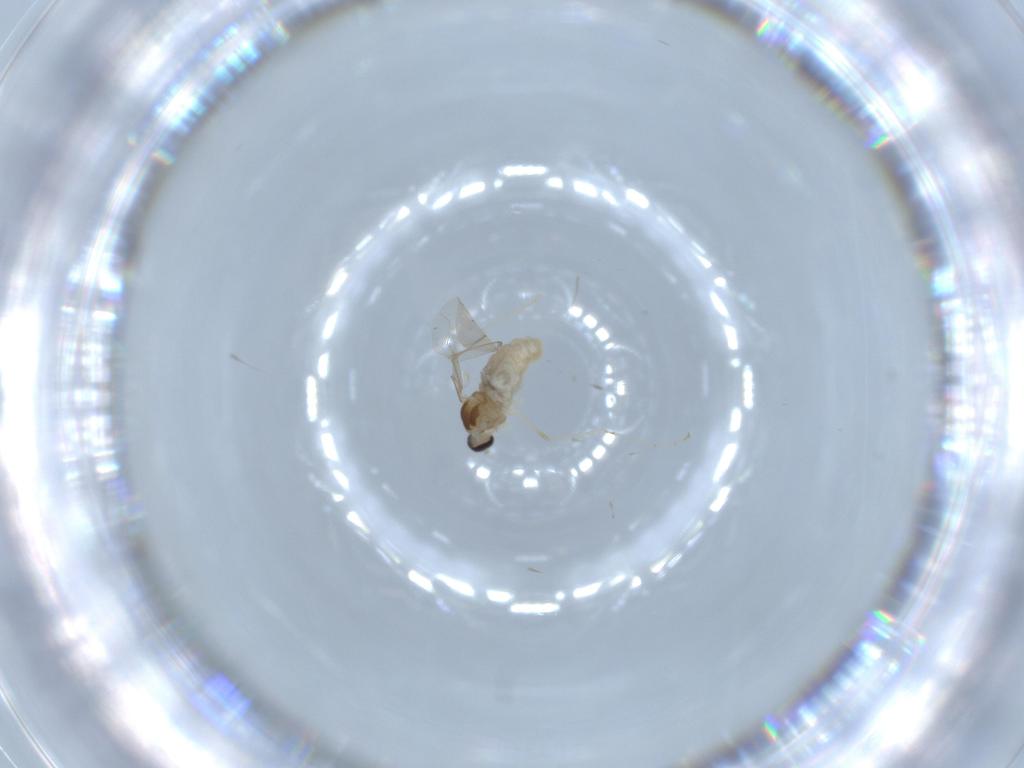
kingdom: Animalia
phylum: Arthropoda
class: Insecta
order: Diptera
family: Cecidomyiidae
